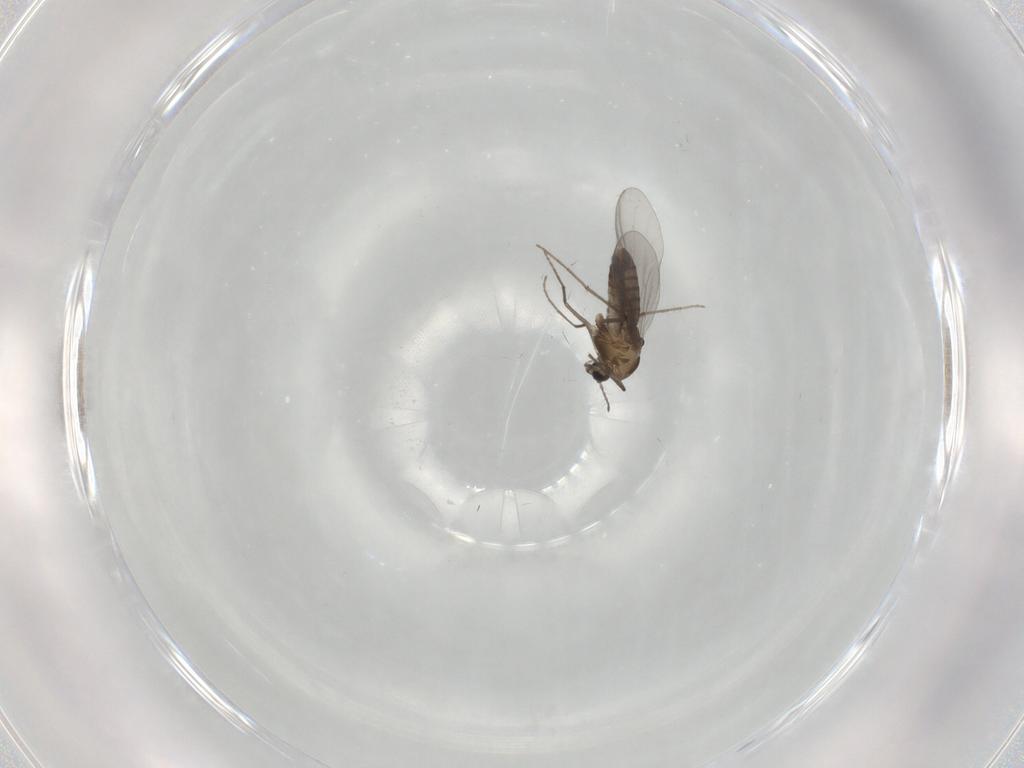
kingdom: Animalia
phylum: Arthropoda
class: Insecta
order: Diptera
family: Chironomidae
